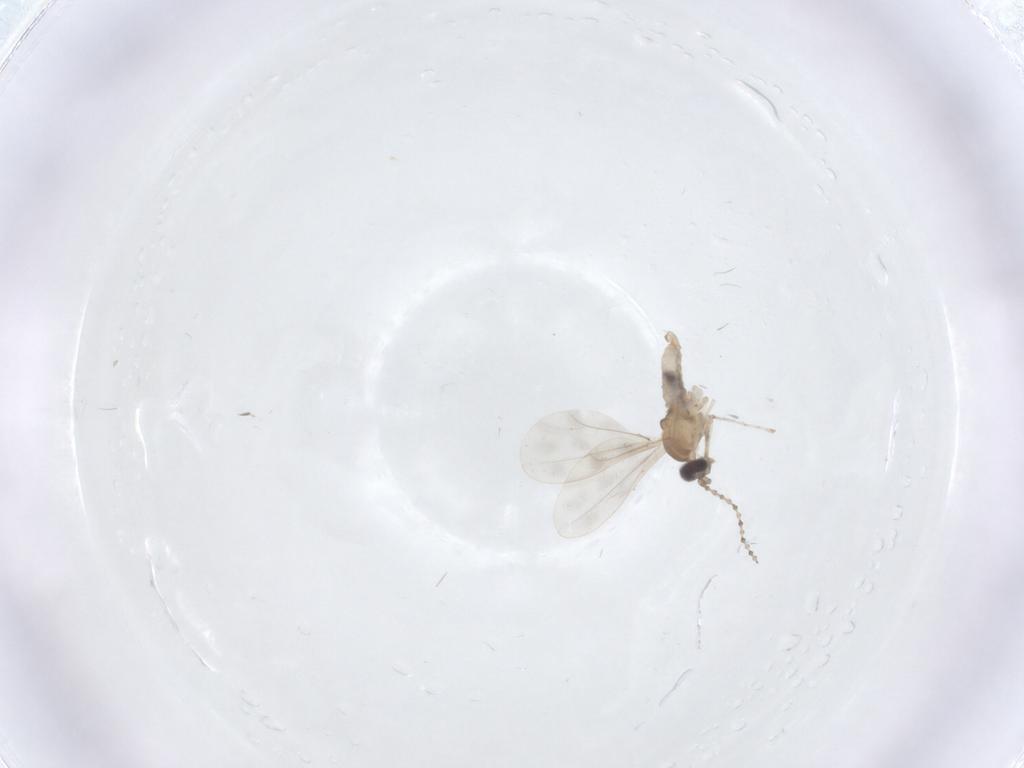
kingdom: Animalia
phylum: Arthropoda
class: Insecta
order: Diptera
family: Cecidomyiidae
